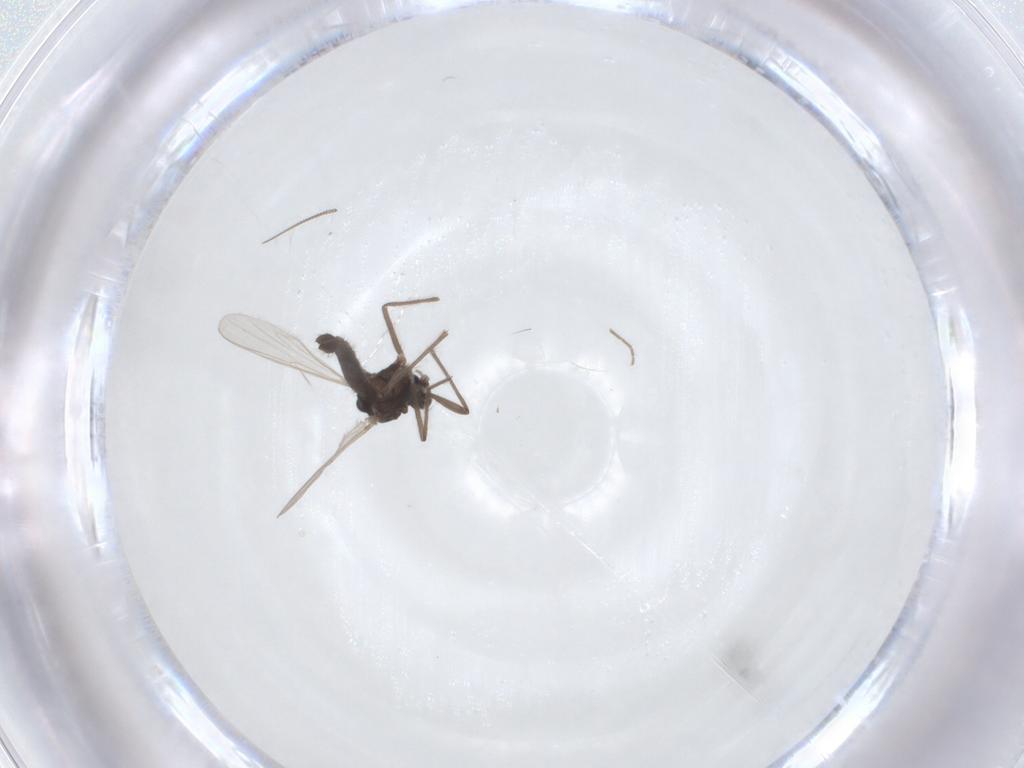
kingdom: Animalia
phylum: Arthropoda
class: Insecta
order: Diptera
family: Chironomidae
